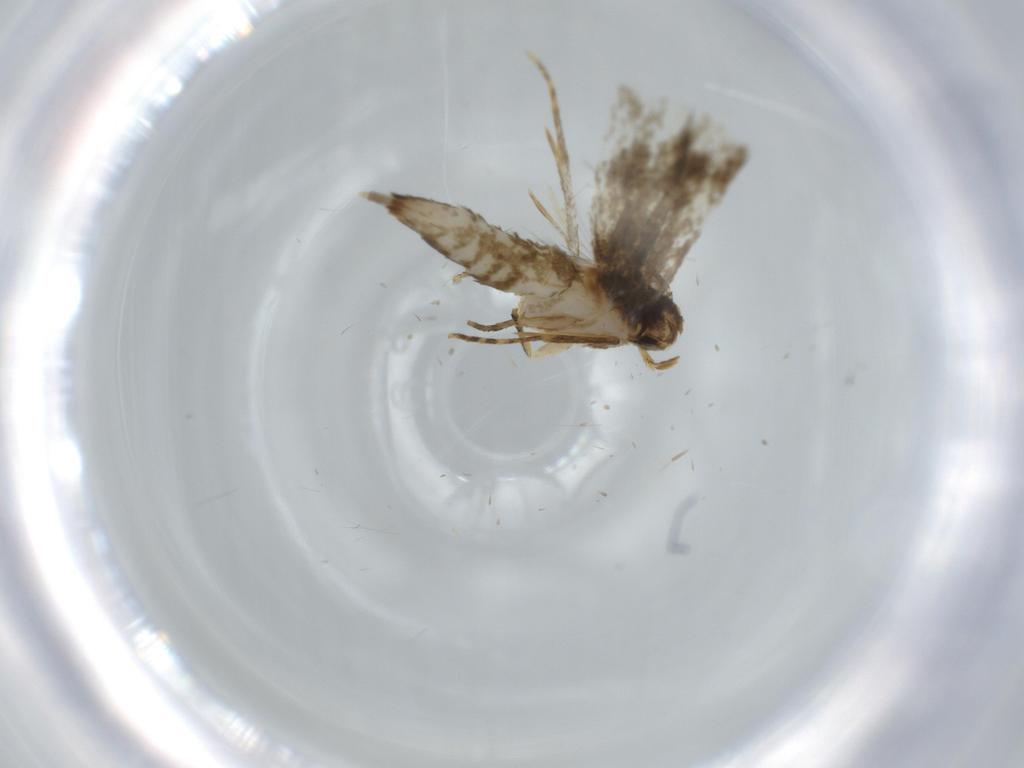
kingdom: Animalia
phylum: Arthropoda
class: Insecta
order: Lepidoptera
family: Tineidae
